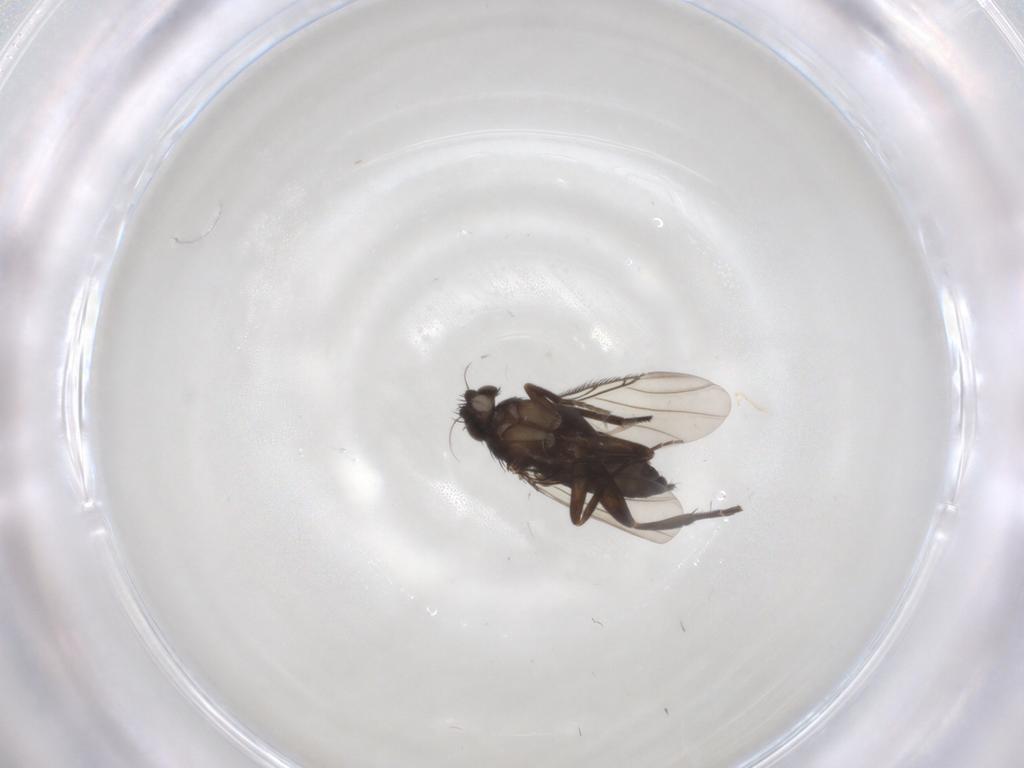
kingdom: Animalia
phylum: Arthropoda
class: Insecta
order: Diptera
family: Phoridae
